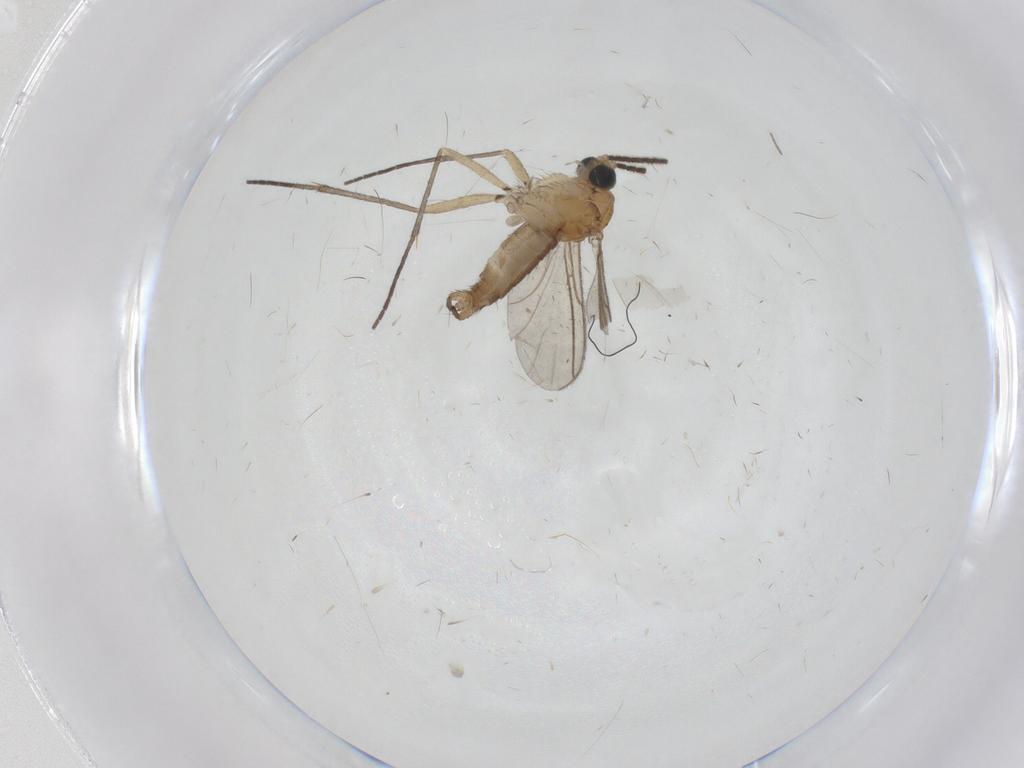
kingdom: Animalia
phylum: Arthropoda
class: Insecta
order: Diptera
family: Sciaridae
